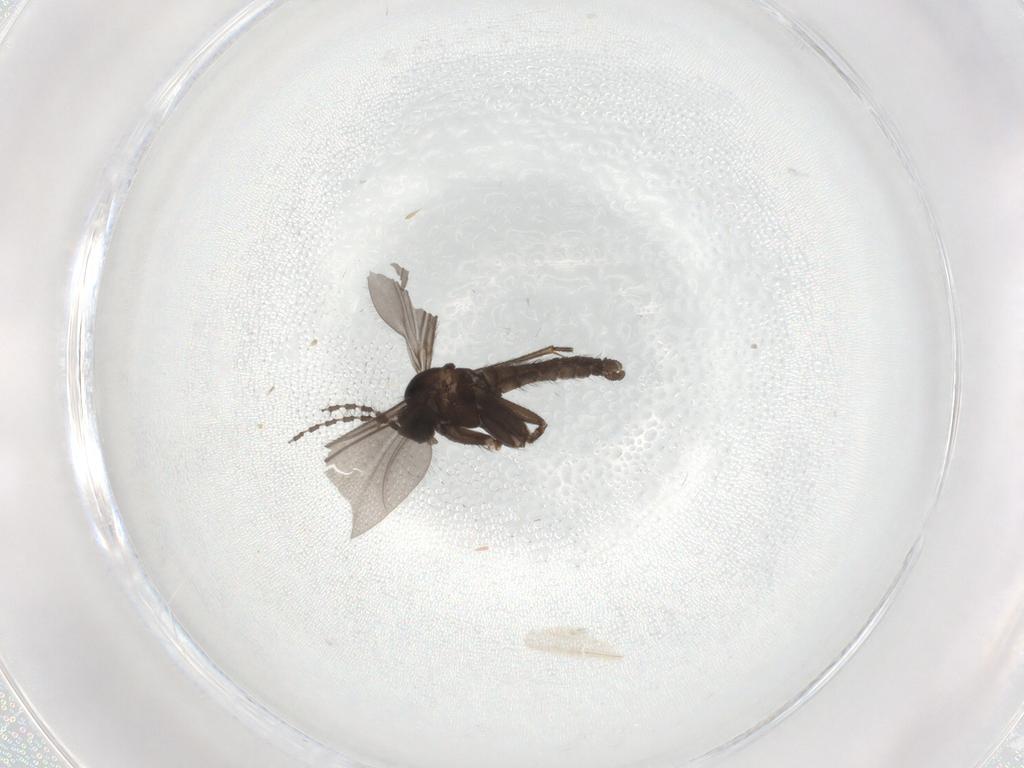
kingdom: Animalia
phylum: Arthropoda
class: Insecta
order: Diptera
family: Sciaridae
